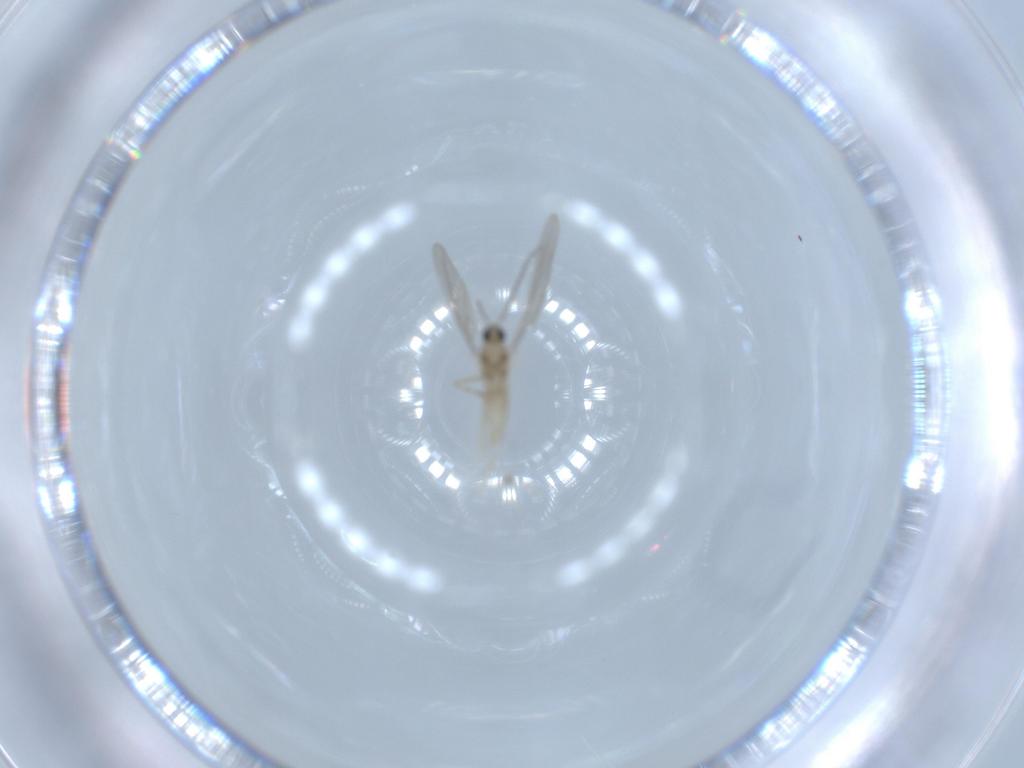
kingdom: Animalia
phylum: Arthropoda
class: Insecta
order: Diptera
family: Cecidomyiidae
